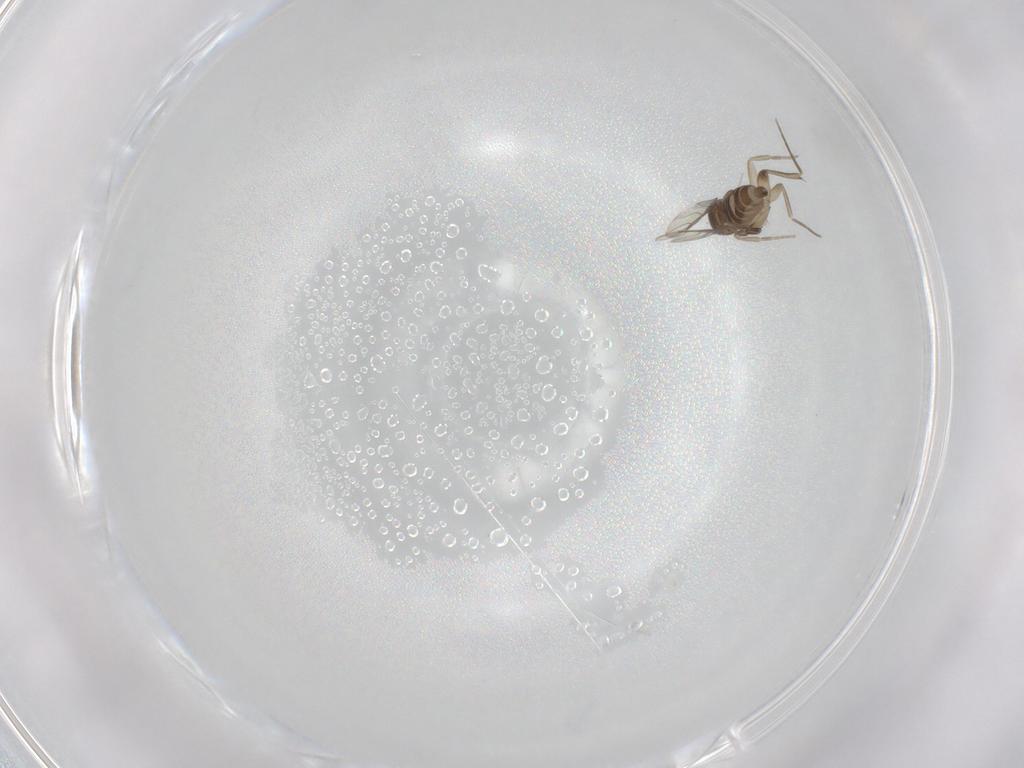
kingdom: Animalia
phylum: Arthropoda
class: Insecta
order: Diptera
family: Phoridae
